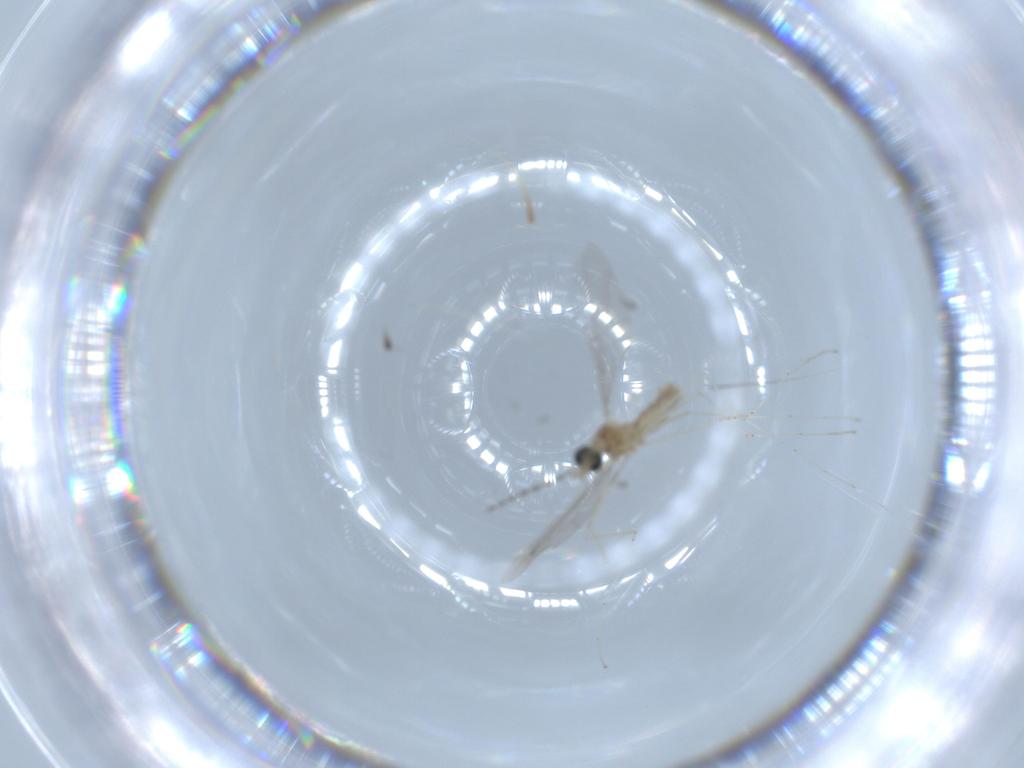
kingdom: Animalia
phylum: Arthropoda
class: Insecta
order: Diptera
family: Cecidomyiidae
